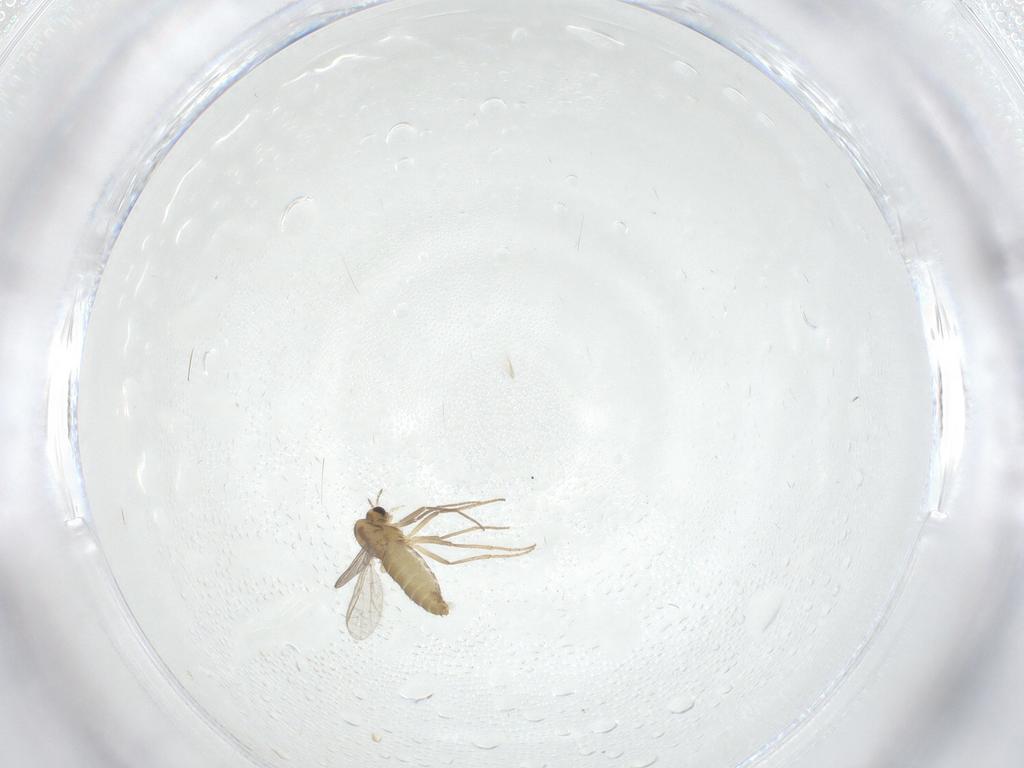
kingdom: Animalia
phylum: Arthropoda
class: Insecta
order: Diptera
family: Chironomidae
